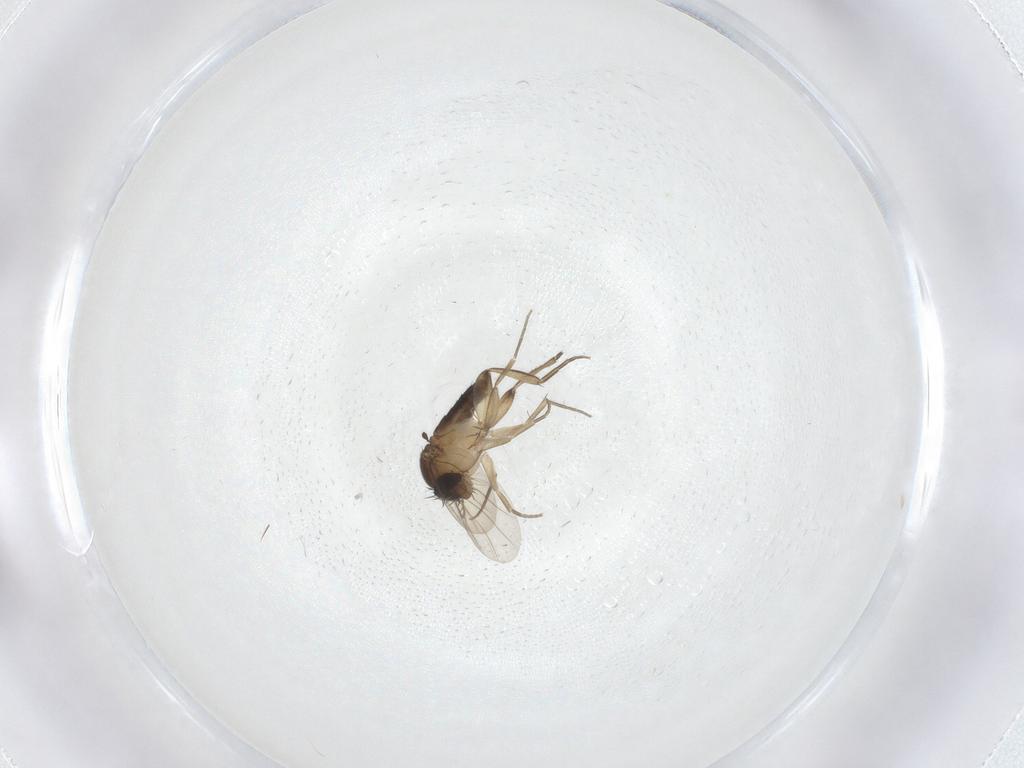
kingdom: Animalia
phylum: Arthropoda
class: Insecta
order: Diptera
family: Phoridae
